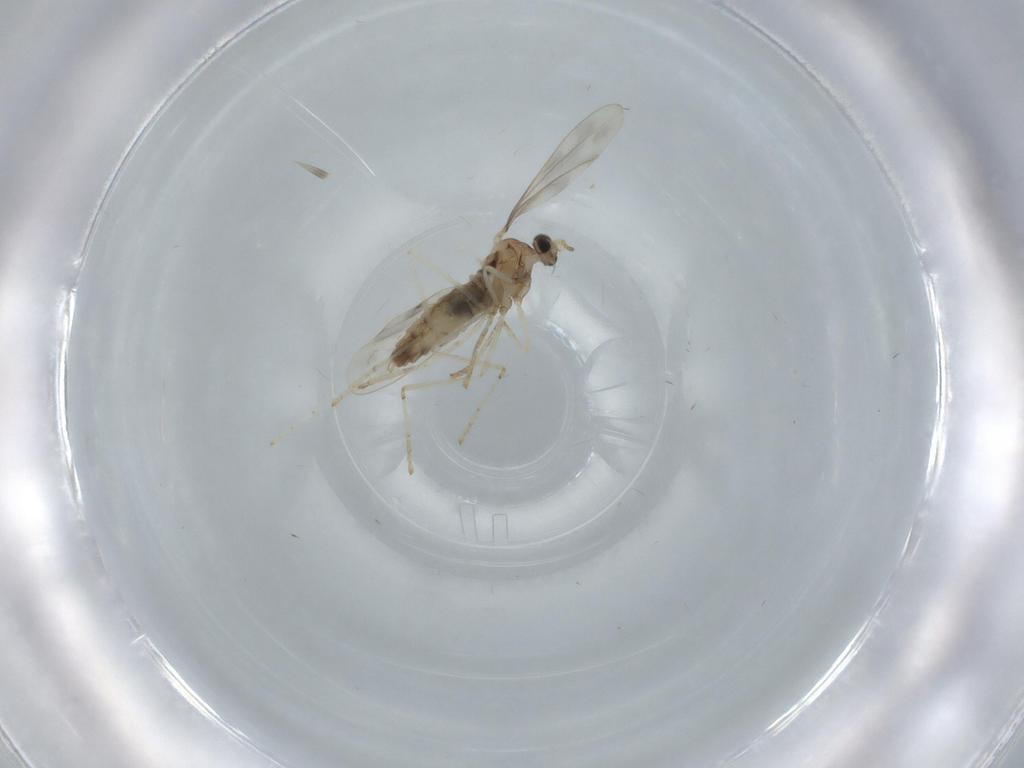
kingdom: Animalia
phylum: Arthropoda
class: Insecta
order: Diptera
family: Cecidomyiidae
